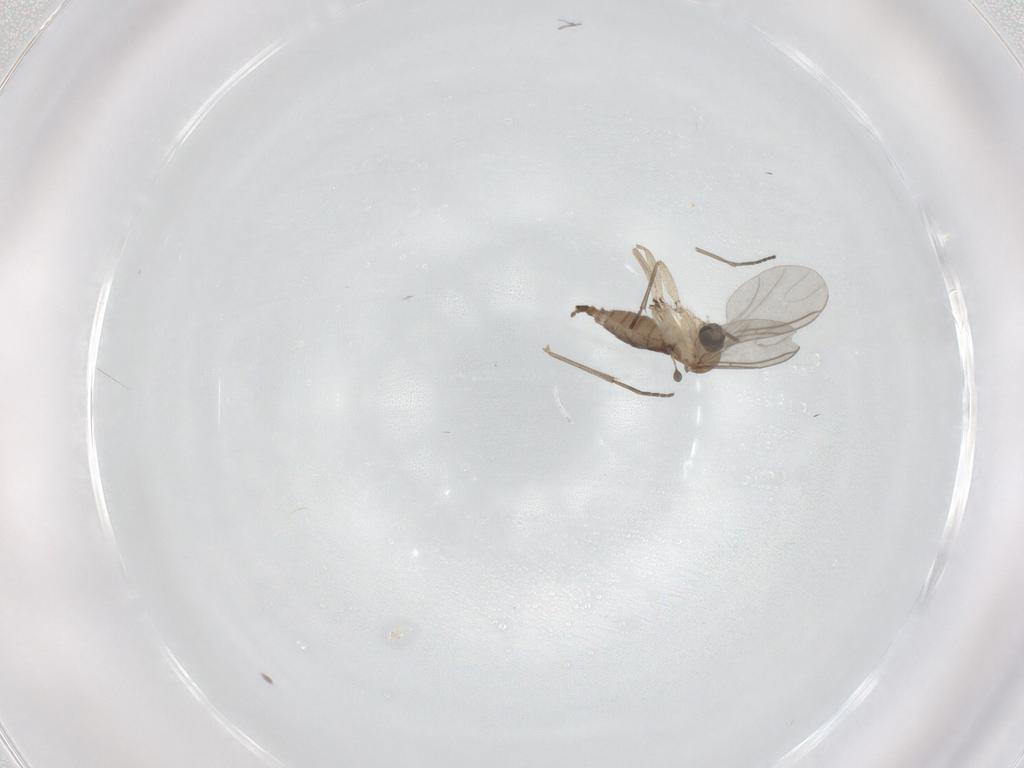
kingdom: Animalia
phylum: Arthropoda
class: Insecta
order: Diptera
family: Sciaridae
